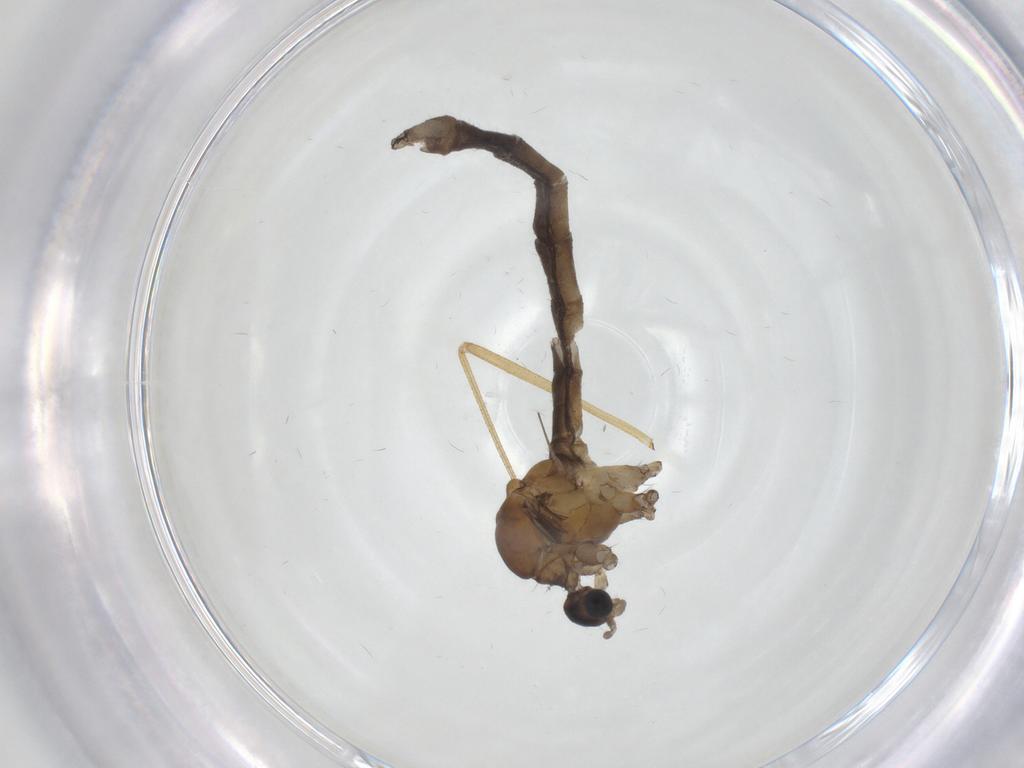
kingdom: Animalia
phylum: Arthropoda
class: Insecta
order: Diptera
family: Limoniidae
